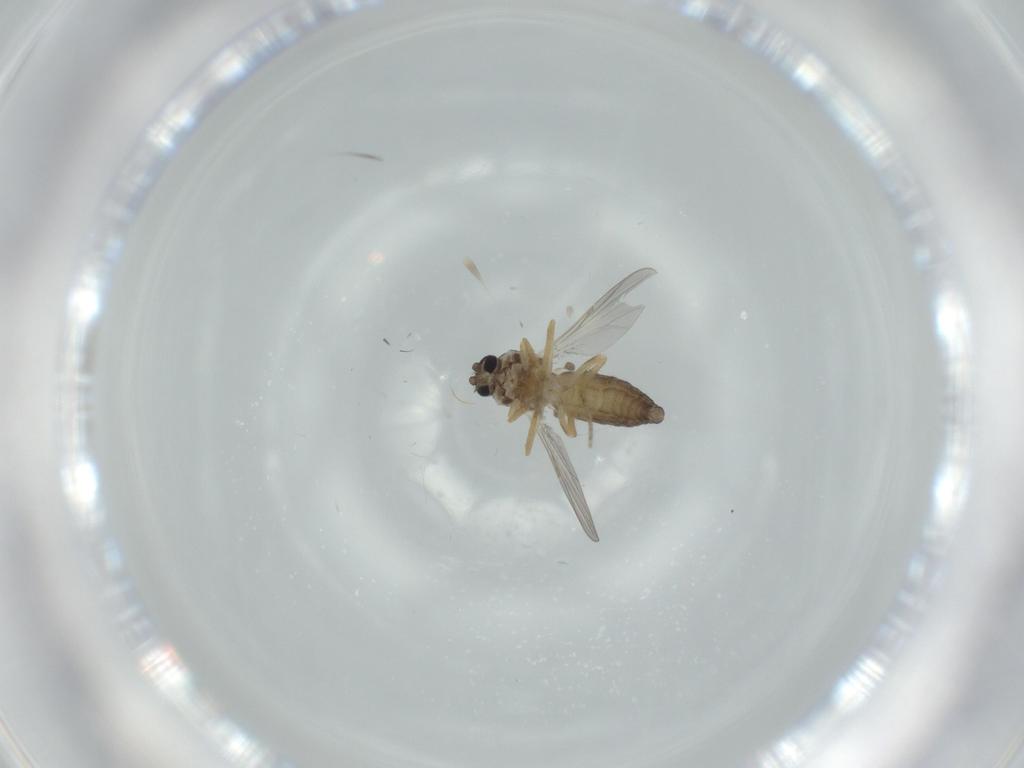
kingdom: Animalia
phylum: Arthropoda
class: Insecta
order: Diptera
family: Ceratopogonidae
